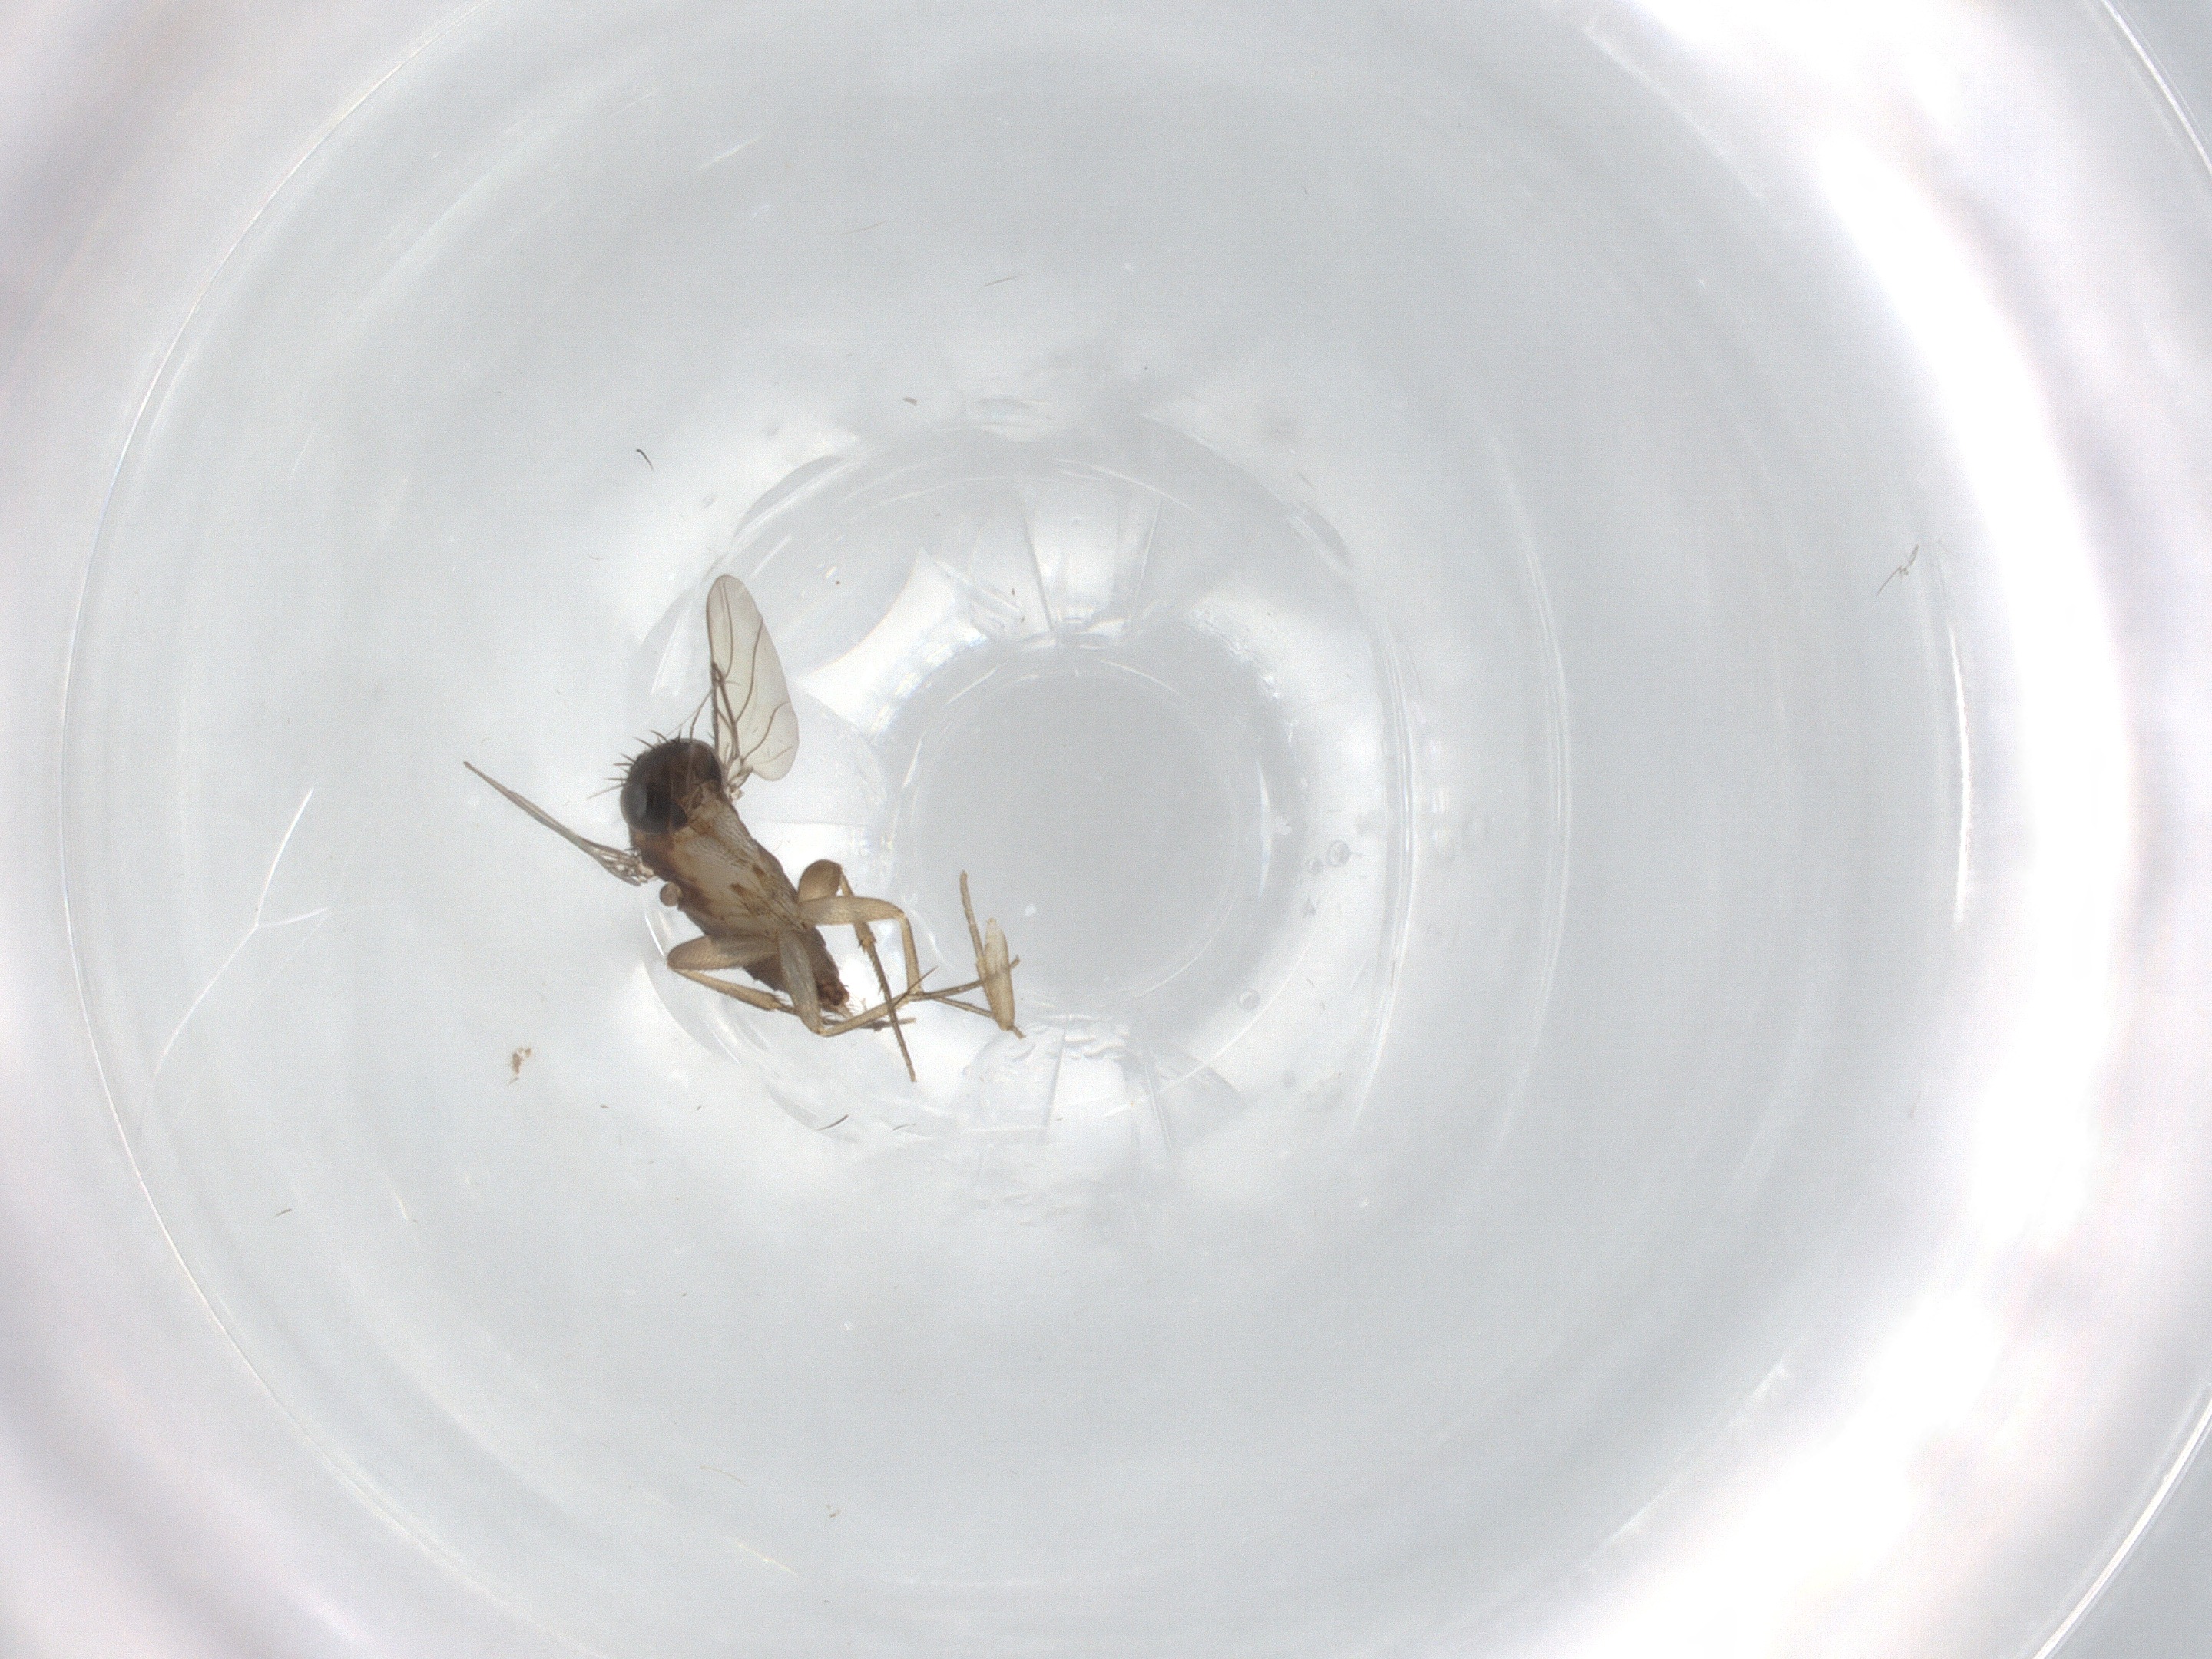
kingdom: Animalia
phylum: Arthropoda
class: Insecta
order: Diptera
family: Phoridae
